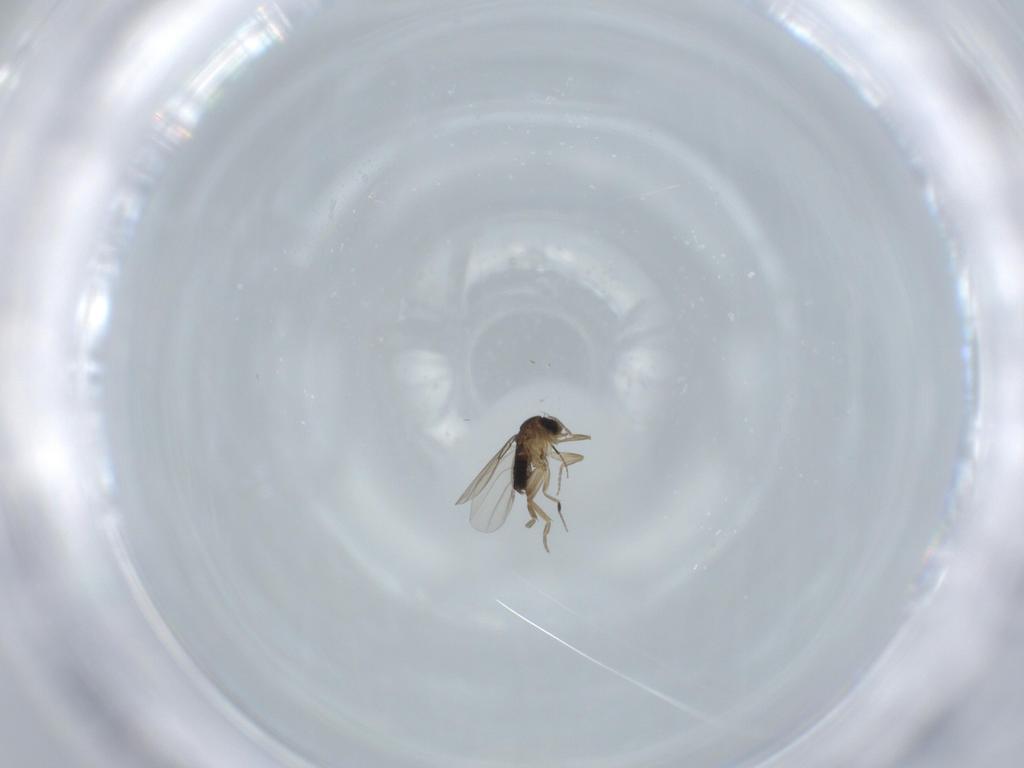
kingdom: Animalia
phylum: Arthropoda
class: Insecta
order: Diptera
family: Phoridae
